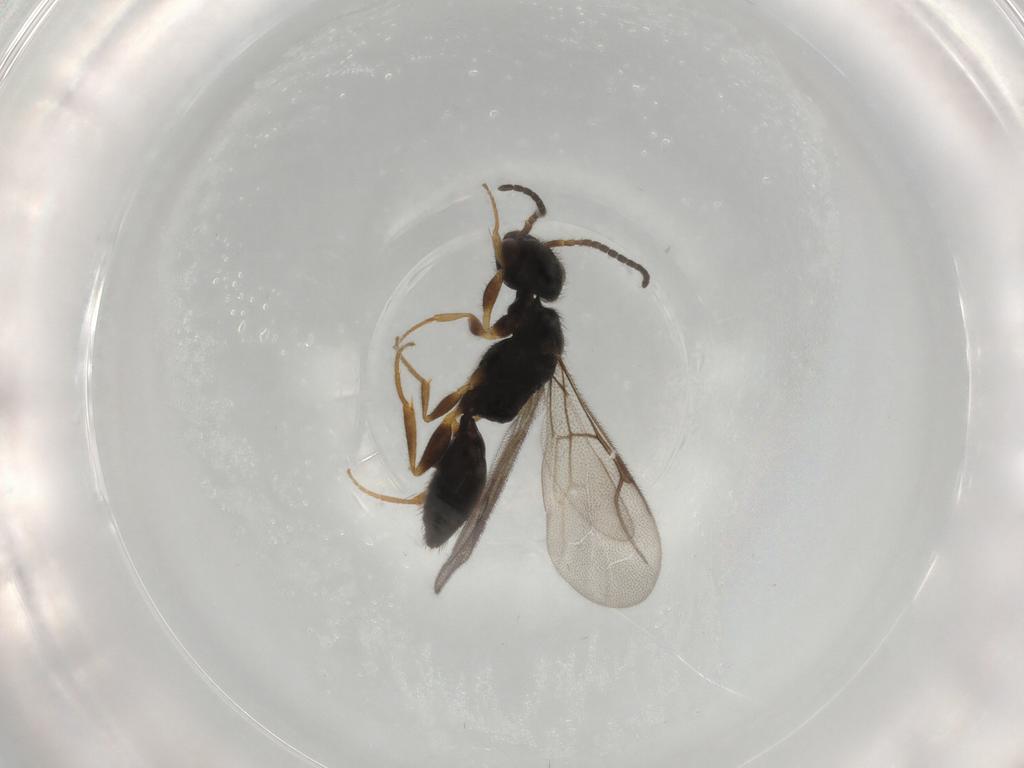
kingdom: Animalia
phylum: Arthropoda
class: Insecta
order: Hymenoptera
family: Bethylidae
